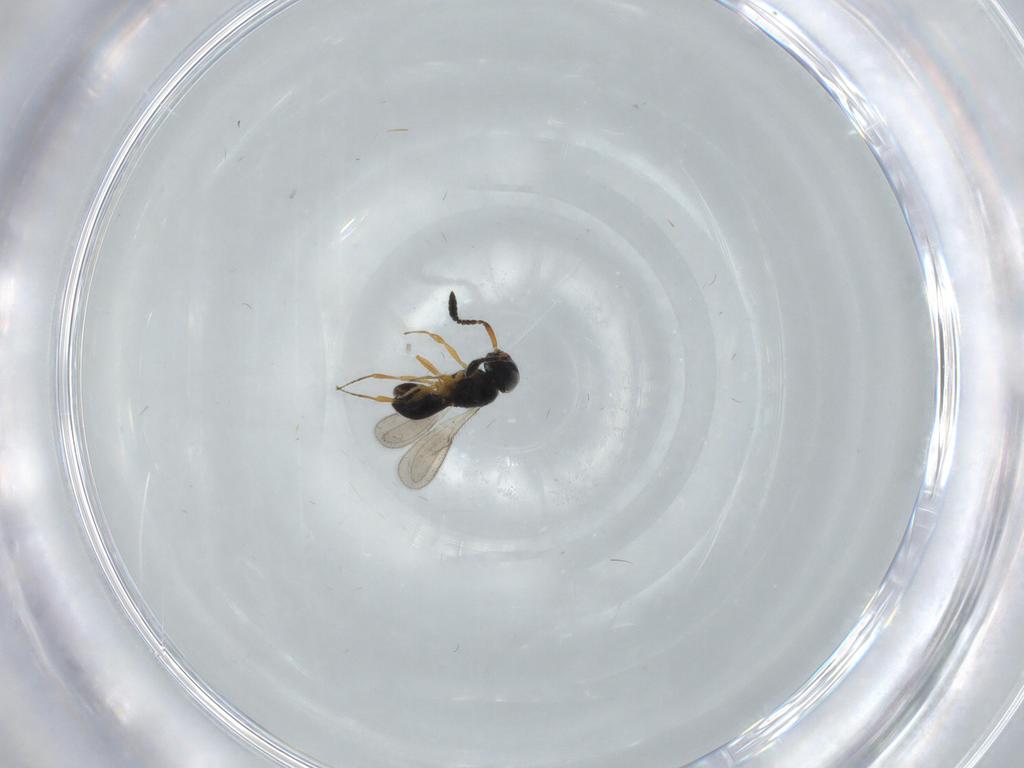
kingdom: Animalia
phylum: Arthropoda
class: Insecta
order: Hymenoptera
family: Scelionidae
